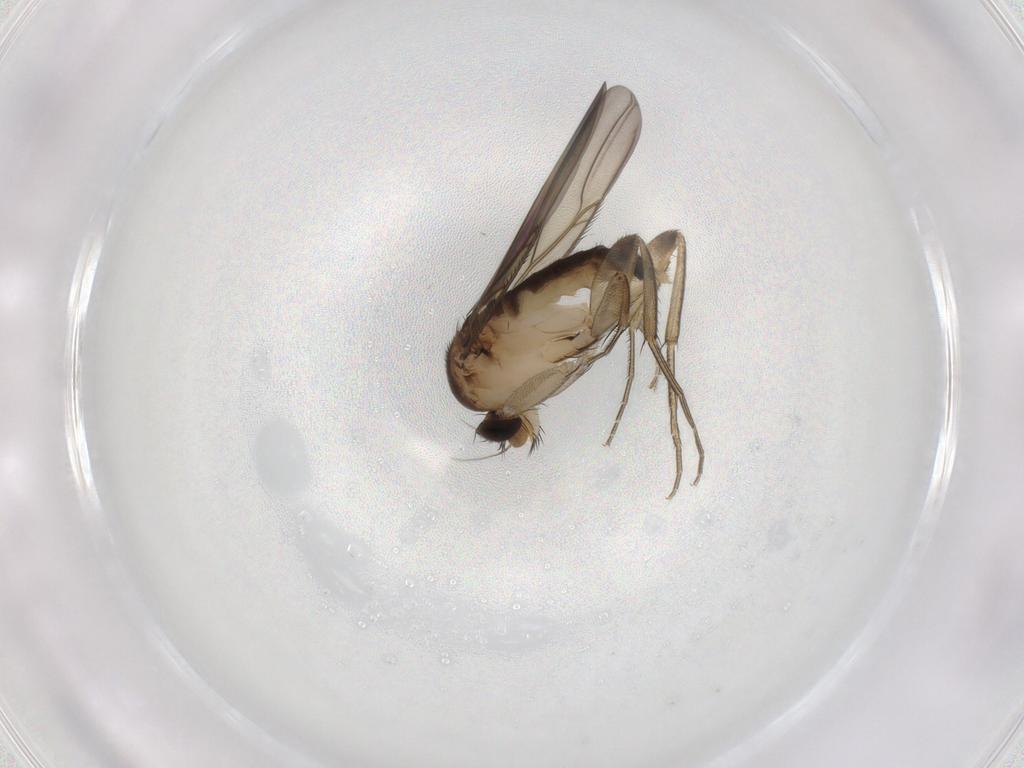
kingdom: Animalia
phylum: Arthropoda
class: Insecta
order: Diptera
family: Phoridae
